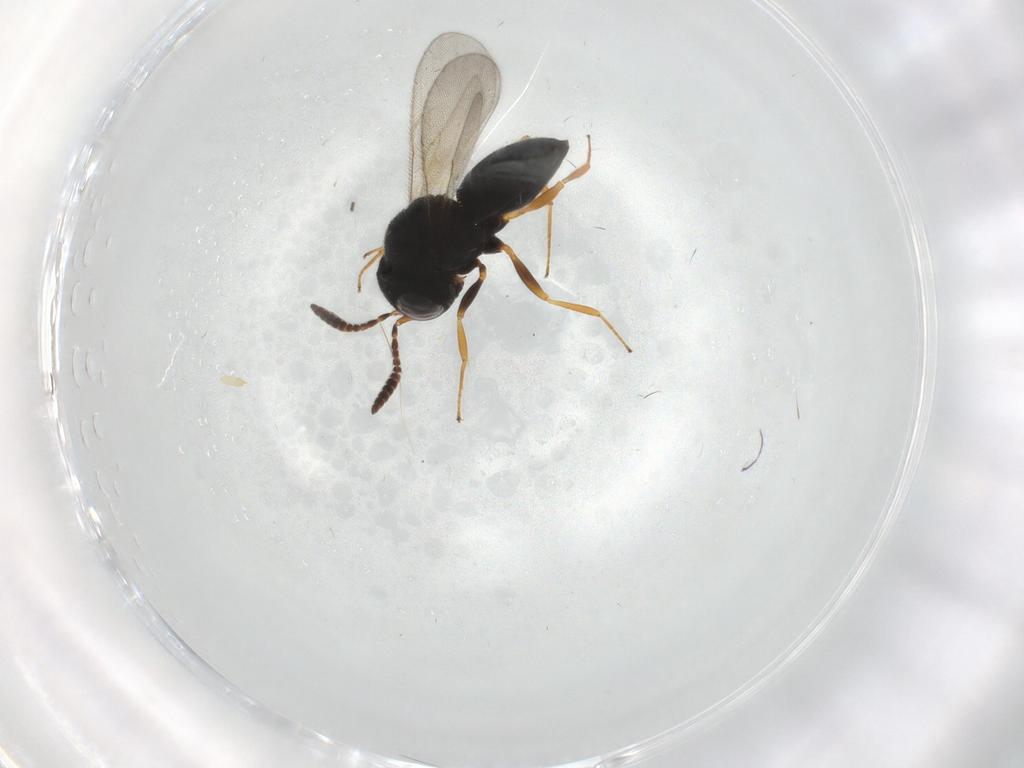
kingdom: Animalia
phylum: Arthropoda
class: Insecta
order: Hymenoptera
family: Scelionidae
